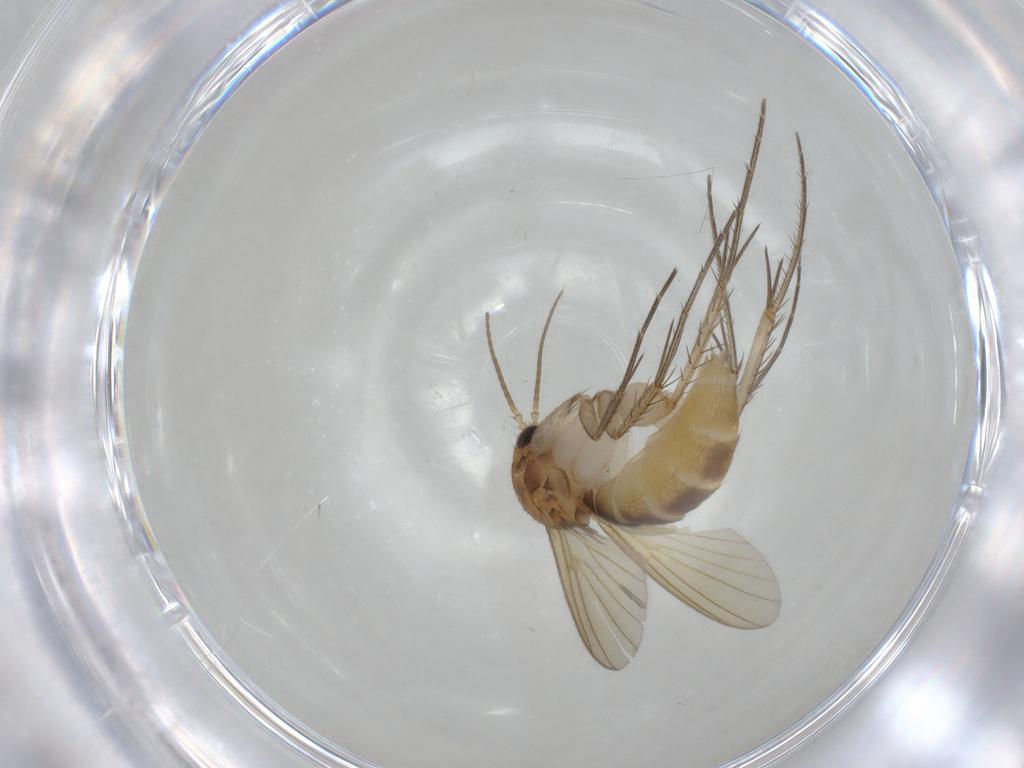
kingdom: Animalia
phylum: Arthropoda
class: Insecta
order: Diptera
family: Mycetophilidae
